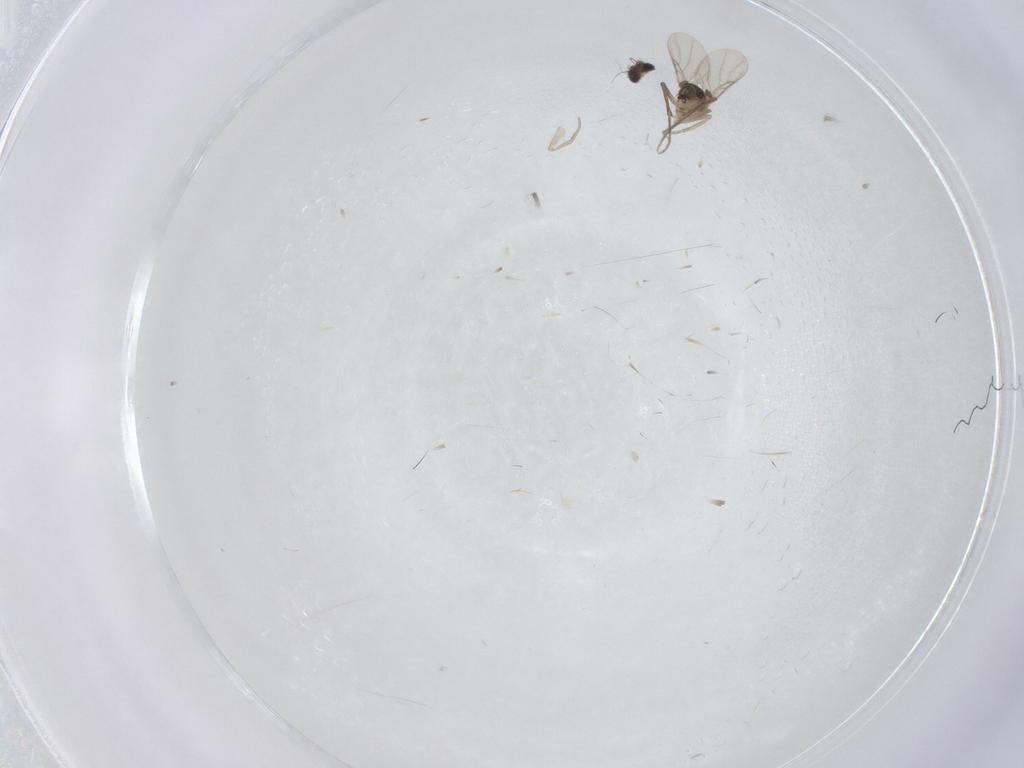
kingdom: Animalia
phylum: Arthropoda
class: Insecta
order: Diptera
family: Phoridae
